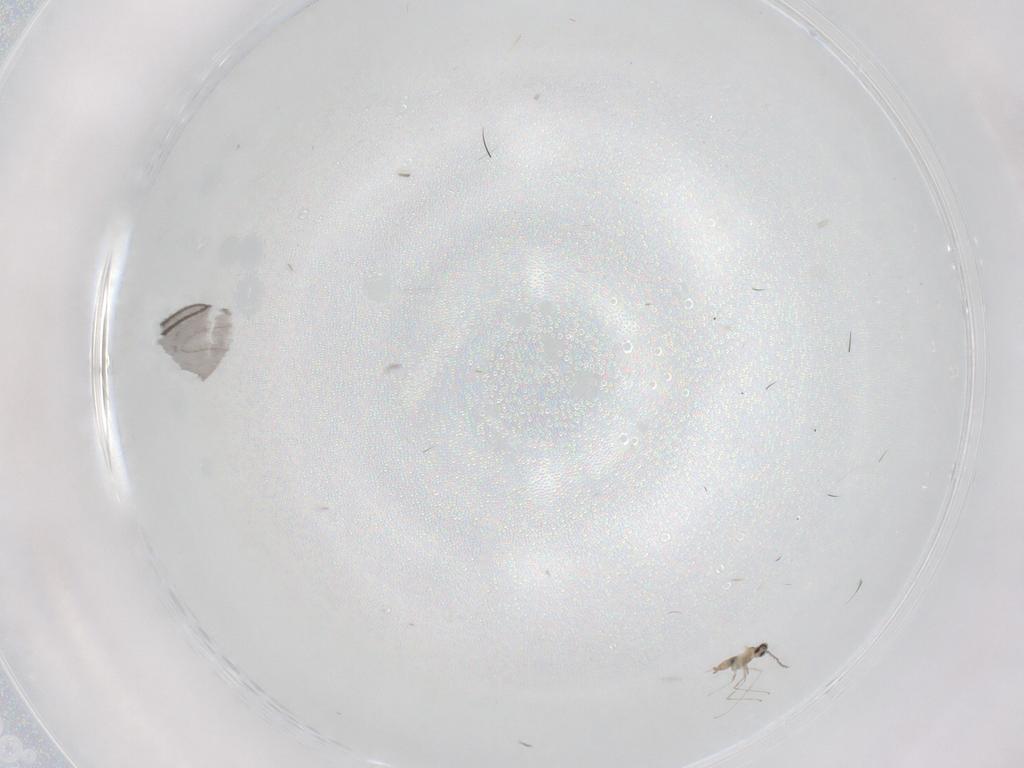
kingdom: Animalia
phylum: Arthropoda
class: Insecta
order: Diptera
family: Cecidomyiidae
